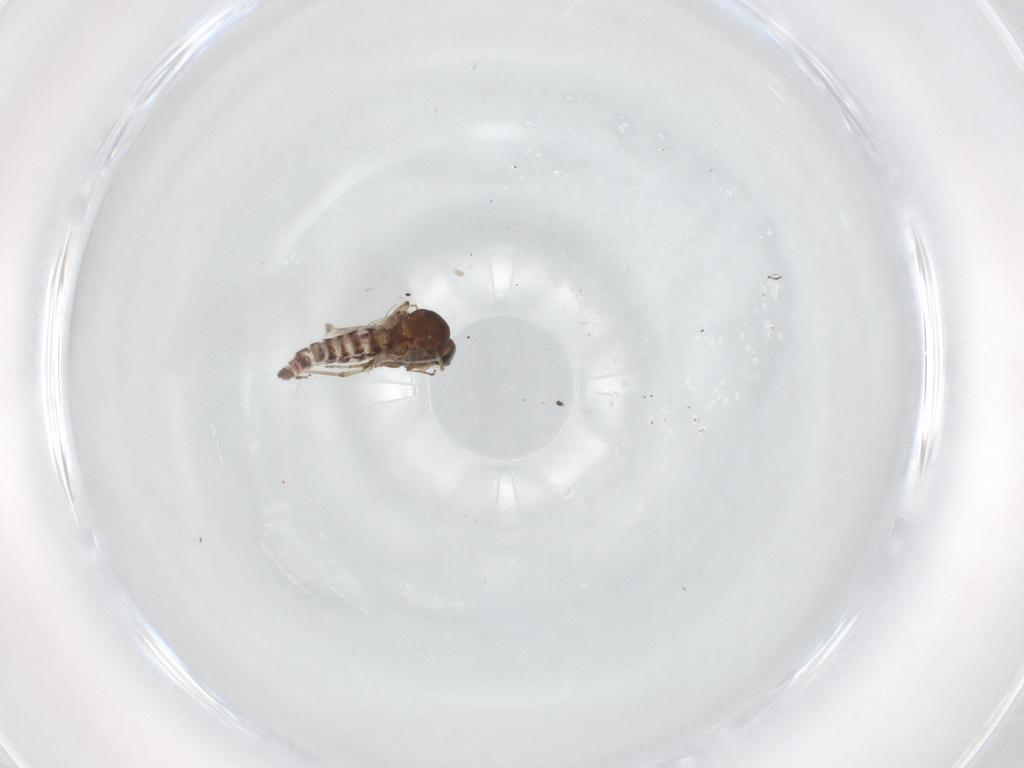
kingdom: Animalia
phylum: Arthropoda
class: Insecta
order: Diptera
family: Ceratopogonidae
